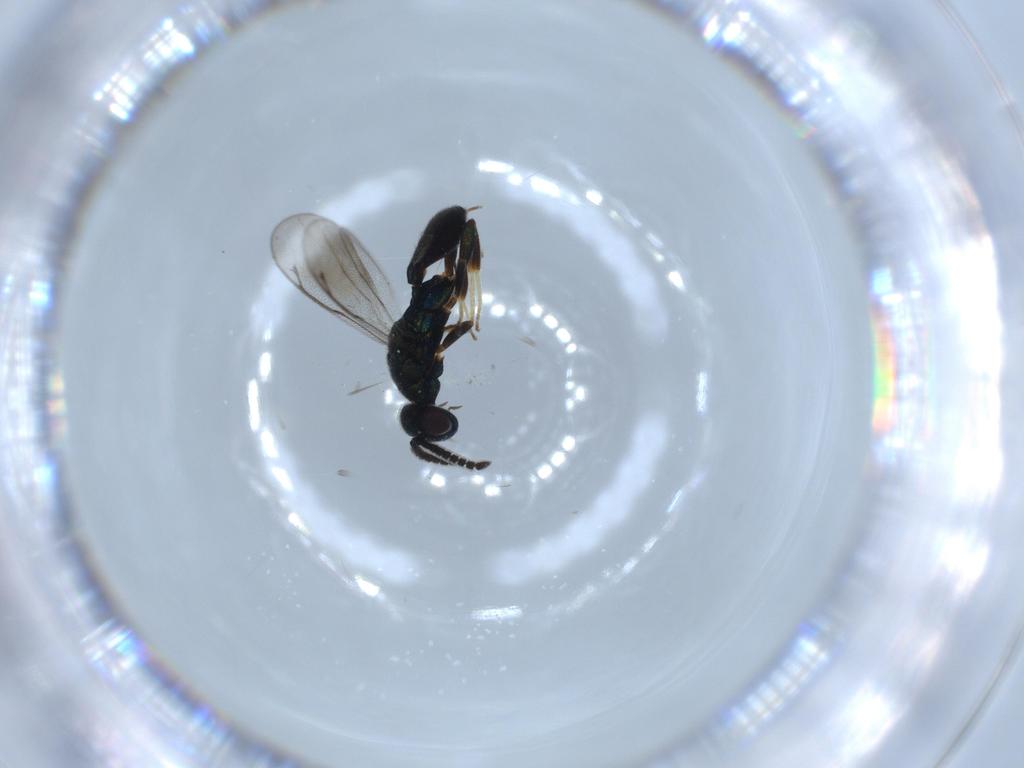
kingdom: Animalia
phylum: Arthropoda
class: Insecta
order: Hymenoptera
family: Cleonyminae
